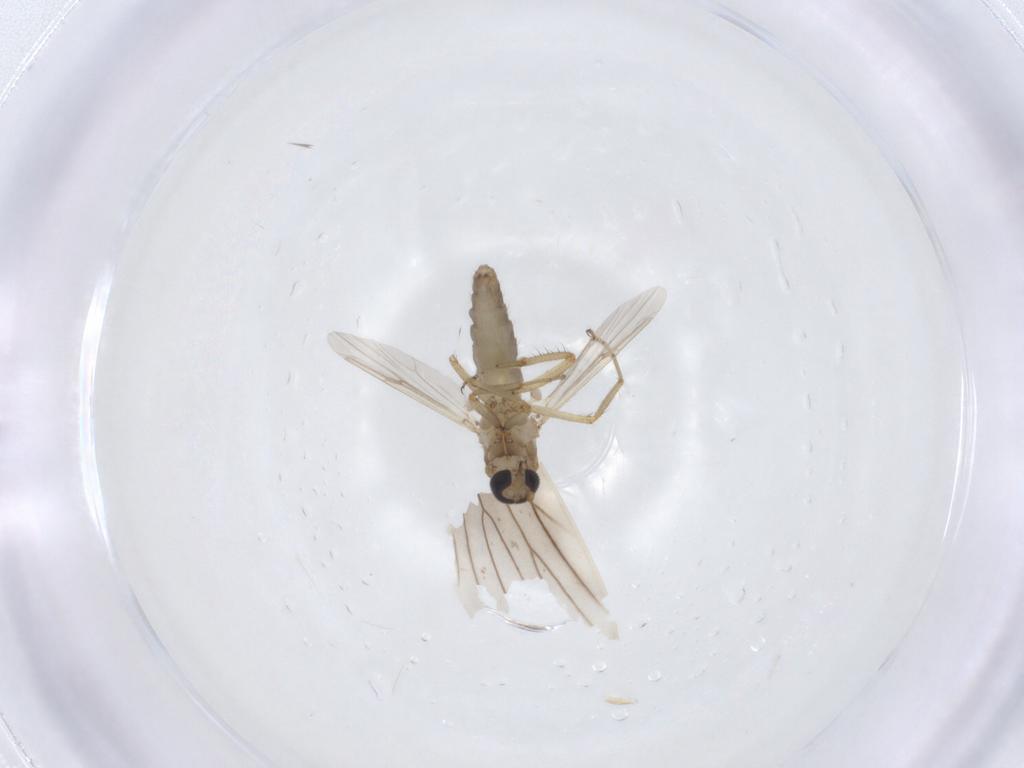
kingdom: Animalia
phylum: Arthropoda
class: Insecta
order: Diptera
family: Ceratopogonidae
